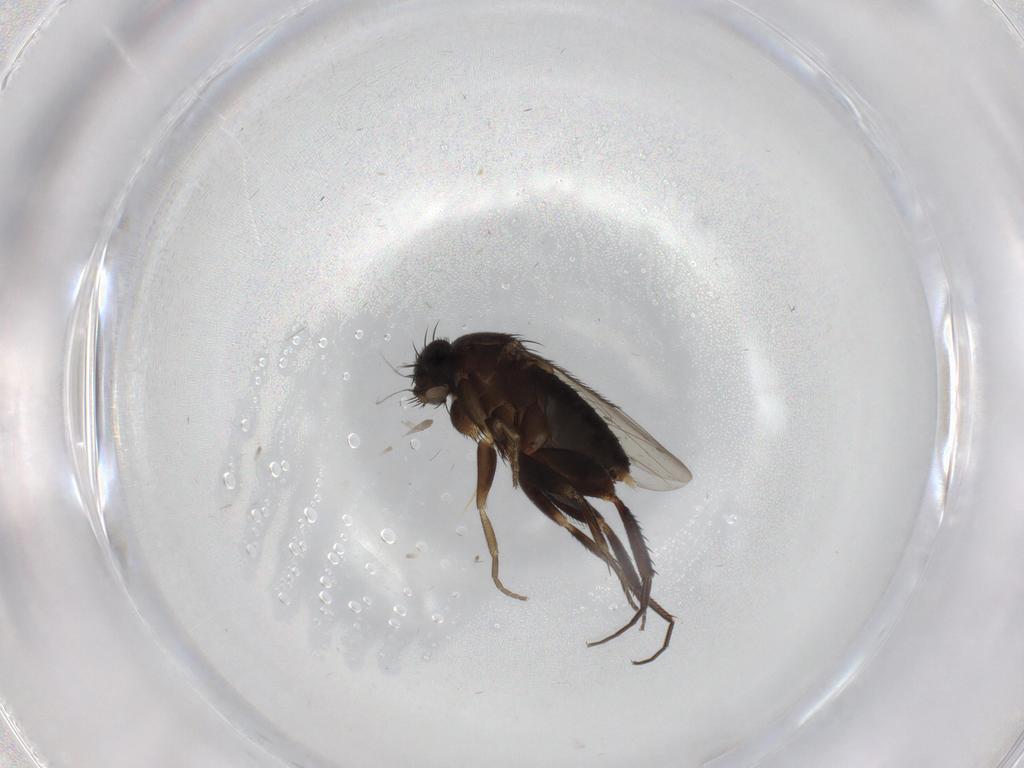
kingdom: Animalia
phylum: Arthropoda
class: Insecta
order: Diptera
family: Phoridae
